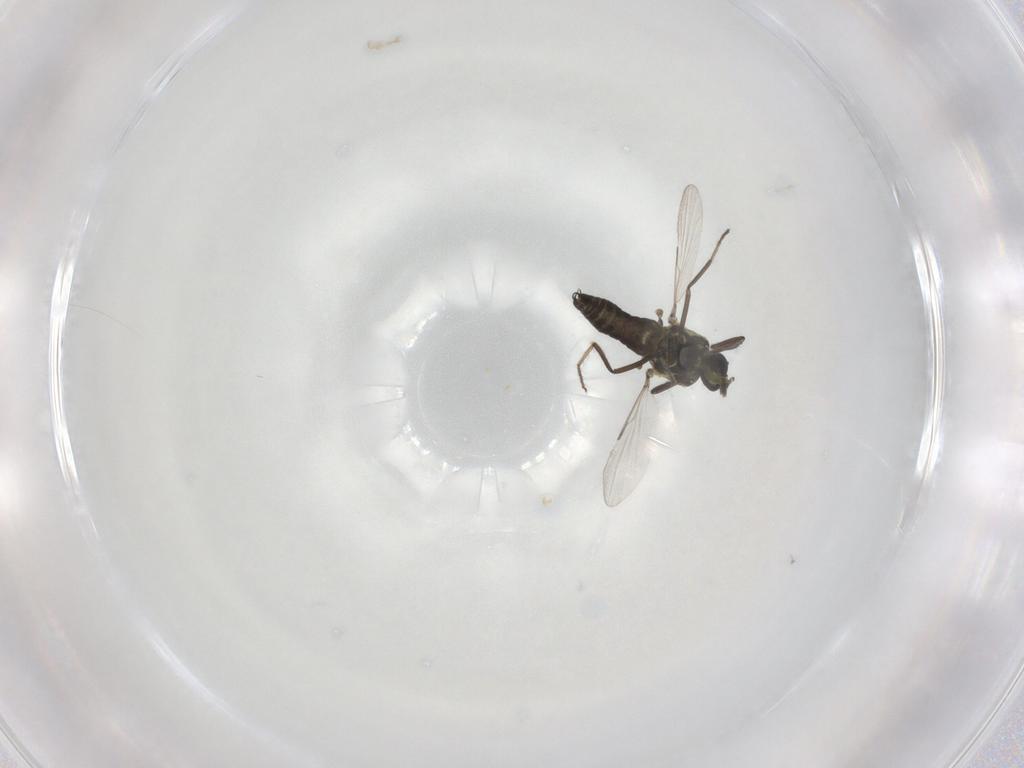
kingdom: Animalia
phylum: Arthropoda
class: Insecta
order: Diptera
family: Ceratopogonidae
